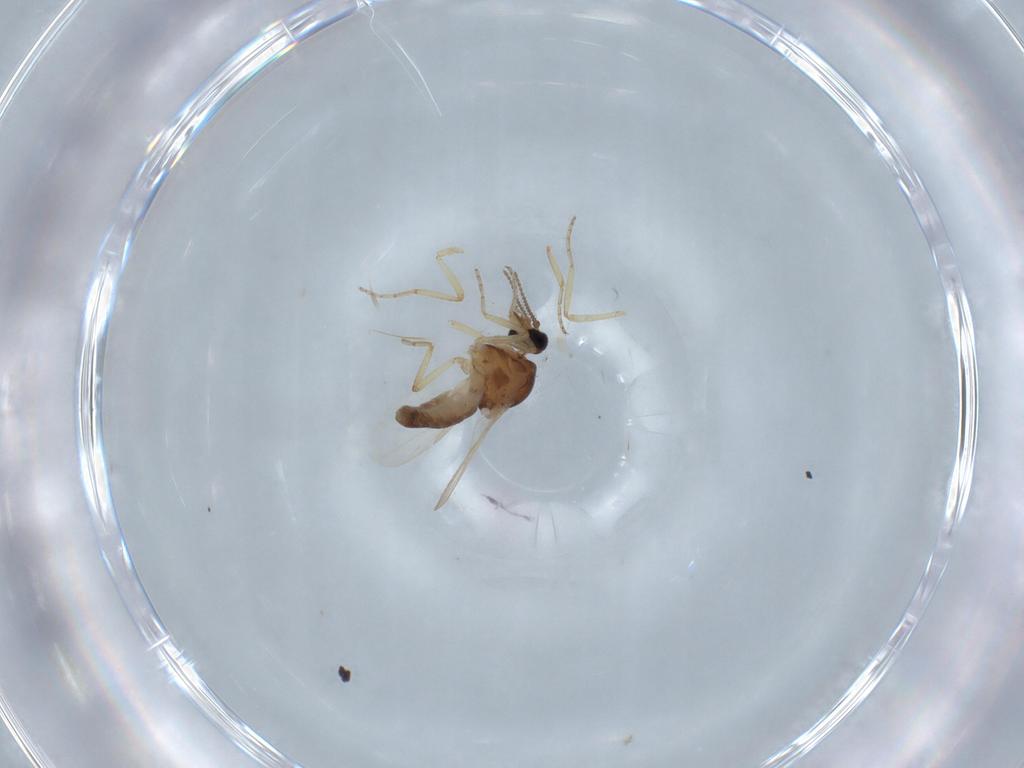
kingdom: Animalia
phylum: Arthropoda
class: Insecta
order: Diptera
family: Ceratopogonidae
